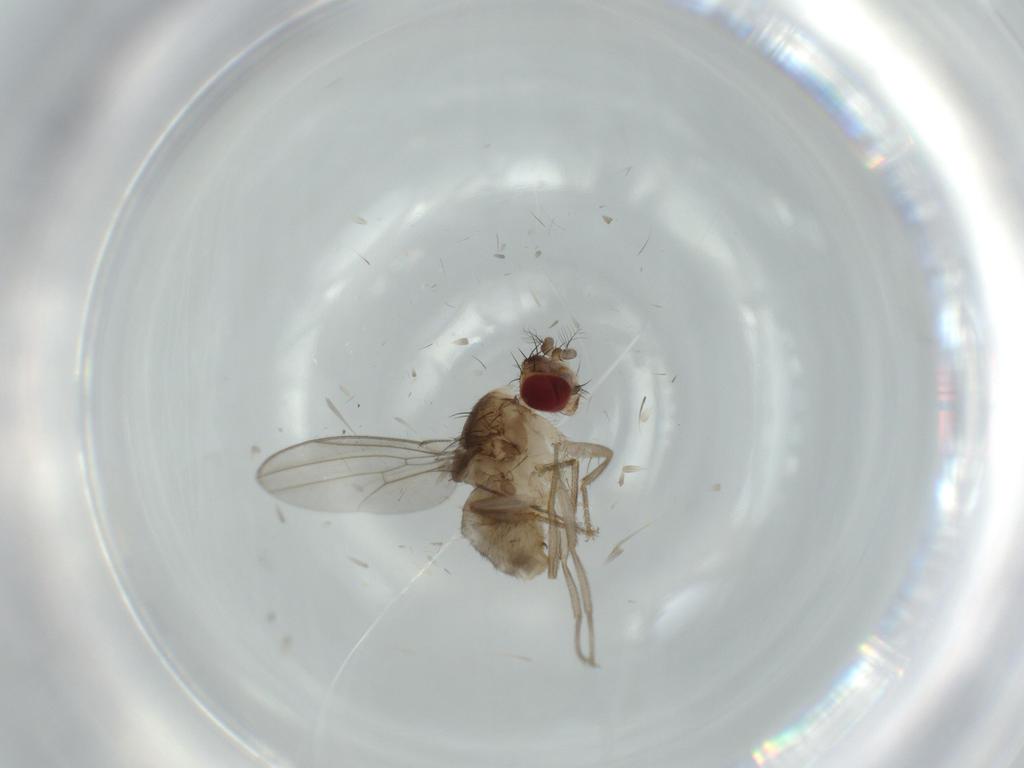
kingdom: Animalia
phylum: Arthropoda
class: Insecta
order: Diptera
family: Drosophilidae
